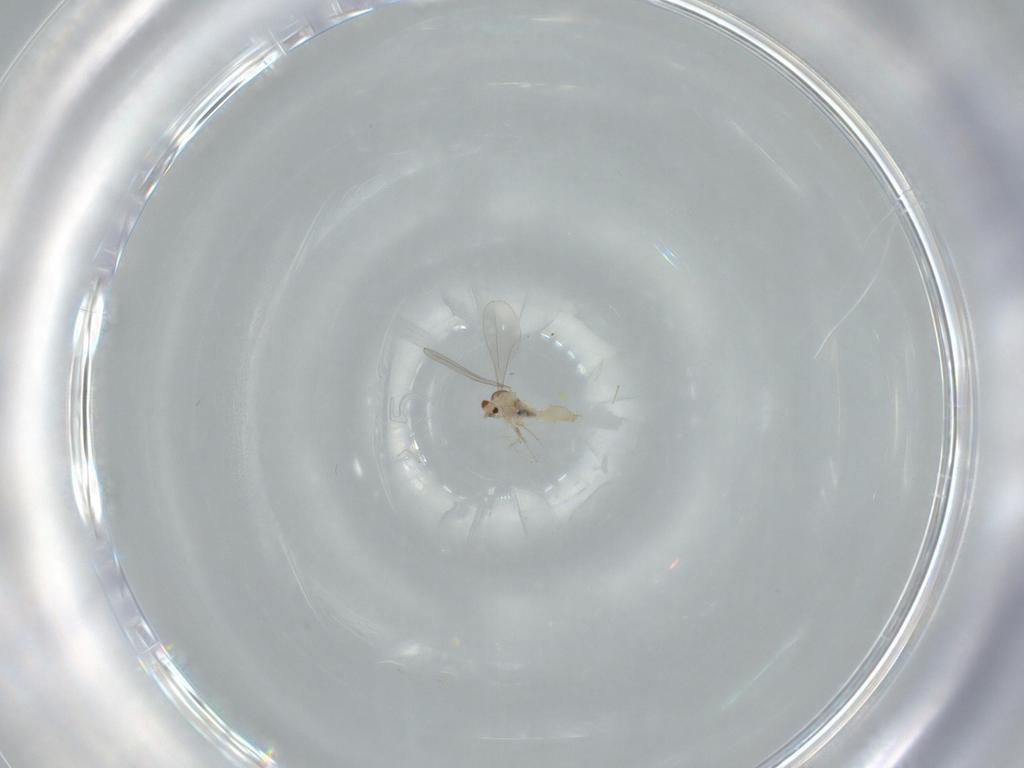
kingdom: Animalia
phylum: Arthropoda
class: Insecta
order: Diptera
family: Cecidomyiidae
